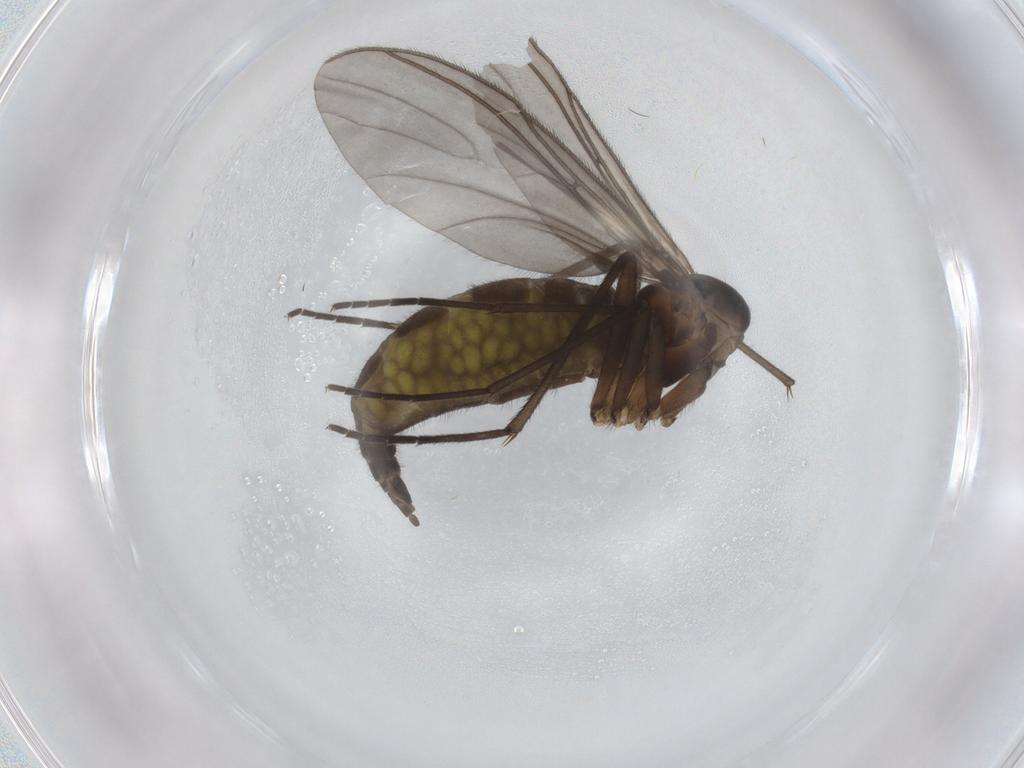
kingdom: Animalia
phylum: Arthropoda
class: Insecta
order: Diptera
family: Sciaridae
